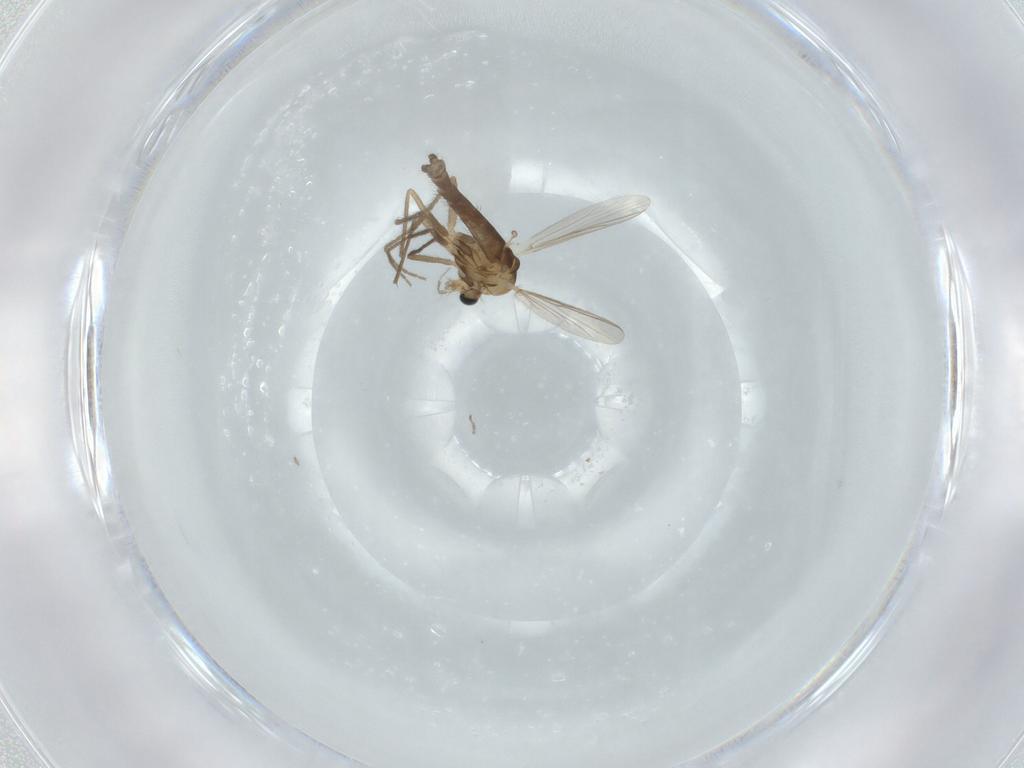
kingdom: Animalia
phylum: Arthropoda
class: Insecta
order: Diptera
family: Chironomidae
